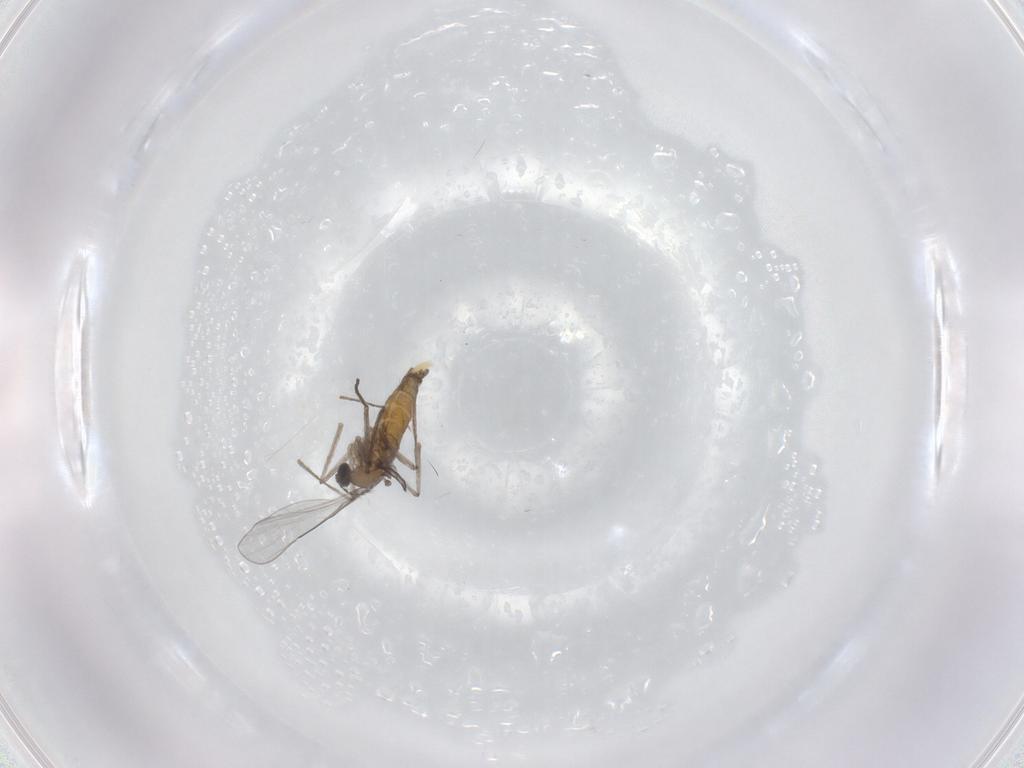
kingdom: Animalia
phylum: Arthropoda
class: Insecta
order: Diptera
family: Cecidomyiidae
